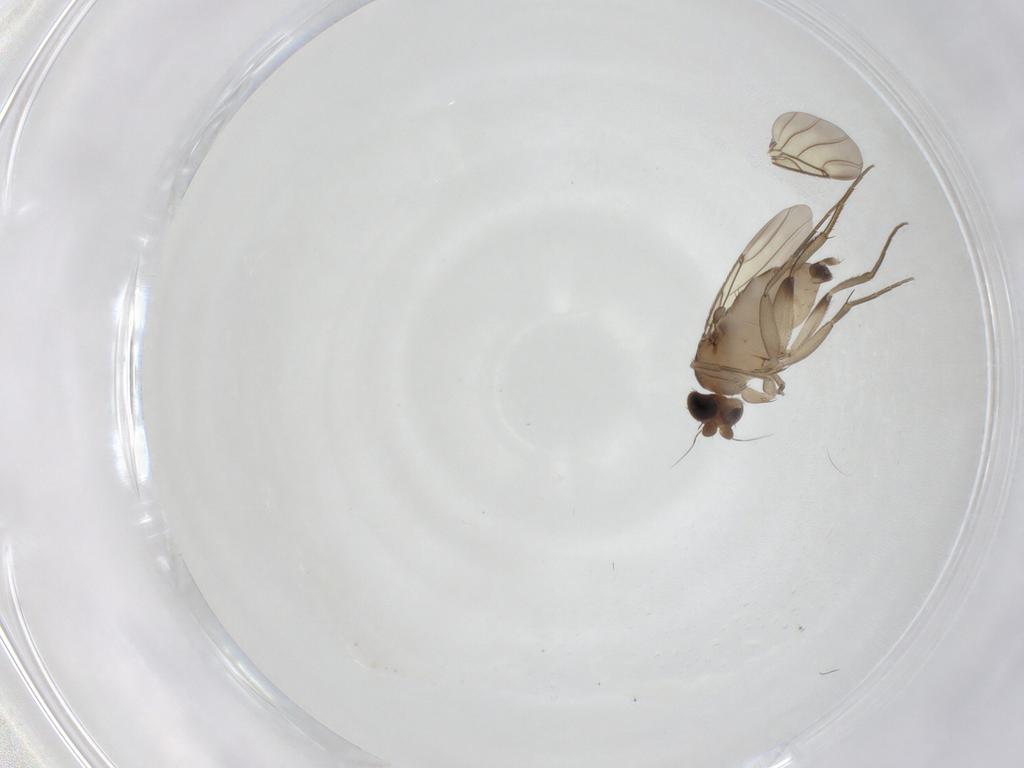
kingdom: Animalia
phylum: Arthropoda
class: Insecta
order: Diptera
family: Phoridae
